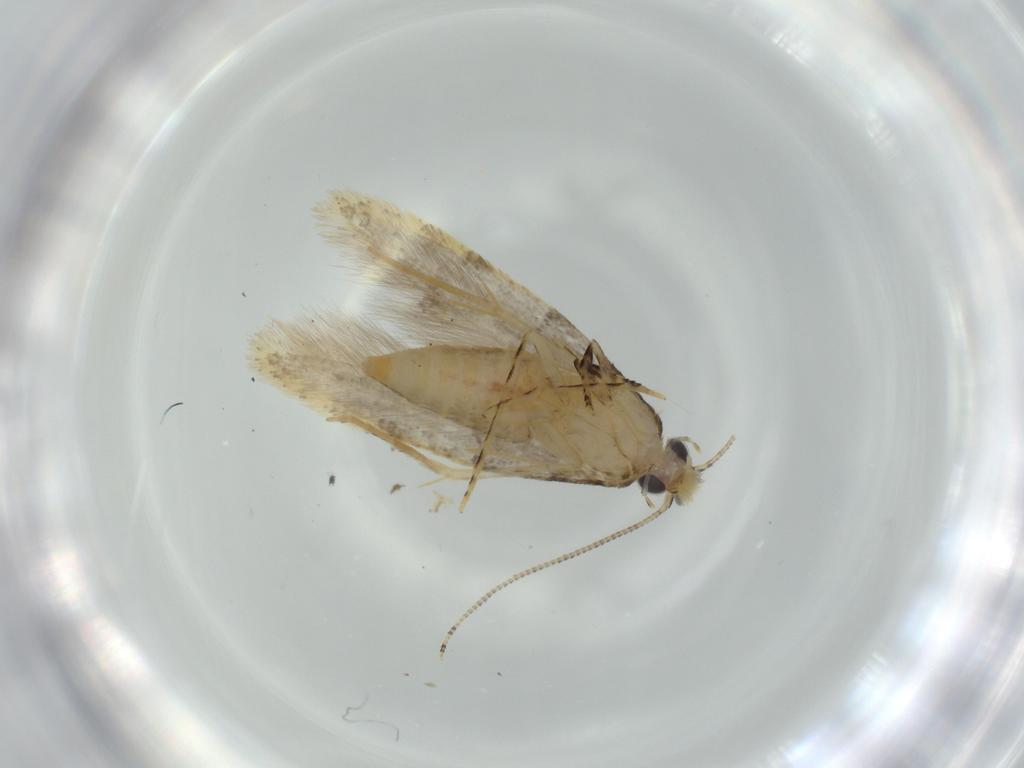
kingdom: Animalia
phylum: Arthropoda
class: Insecta
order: Lepidoptera
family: Tineidae
